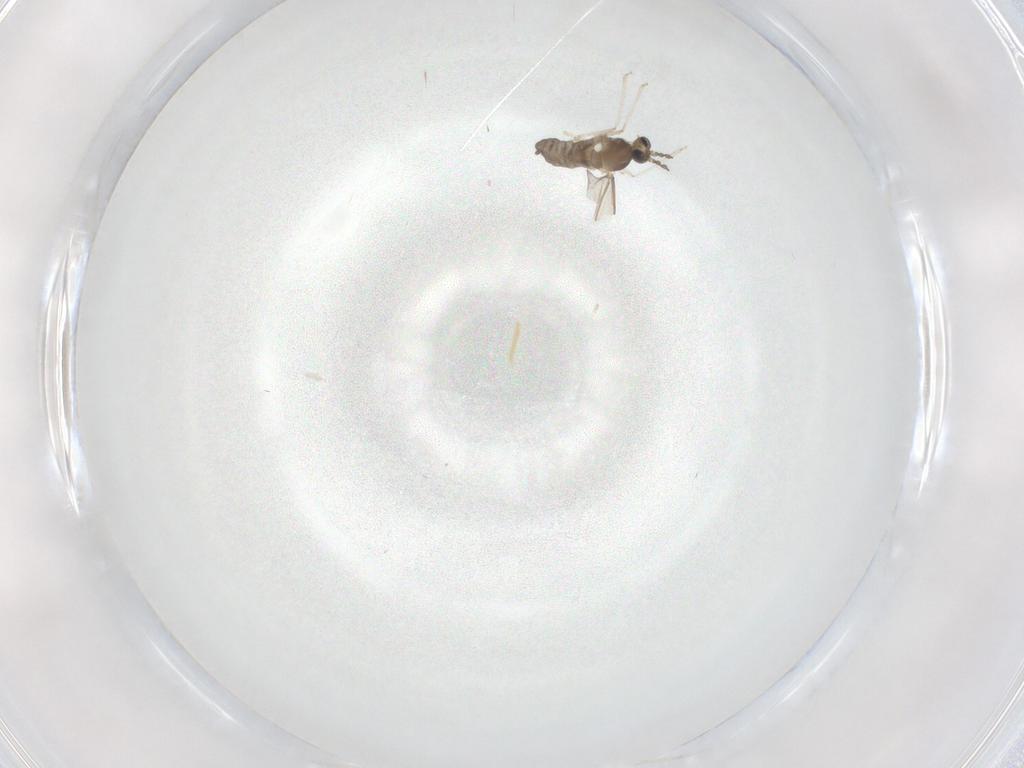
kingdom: Animalia
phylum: Arthropoda
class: Insecta
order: Diptera
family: Cecidomyiidae
